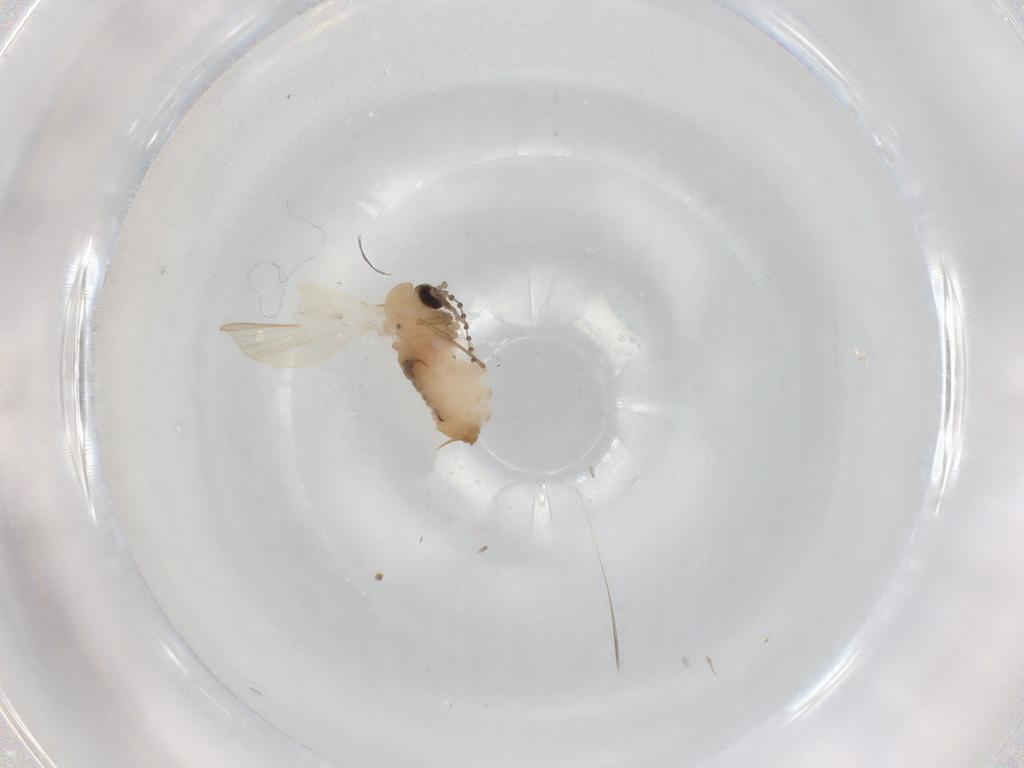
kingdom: Animalia
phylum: Arthropoda
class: Insecta
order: Diptera
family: Psychodidae
